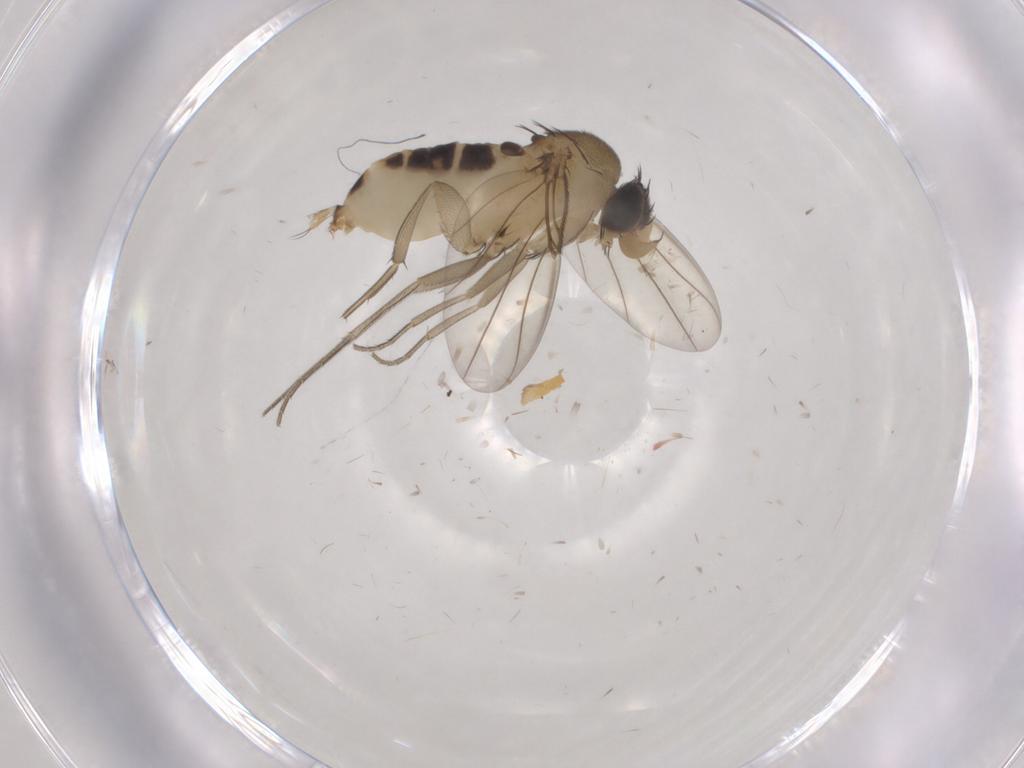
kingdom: Animalia
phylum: Arthropoda
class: Insecta
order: Diptera
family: Phoridae
